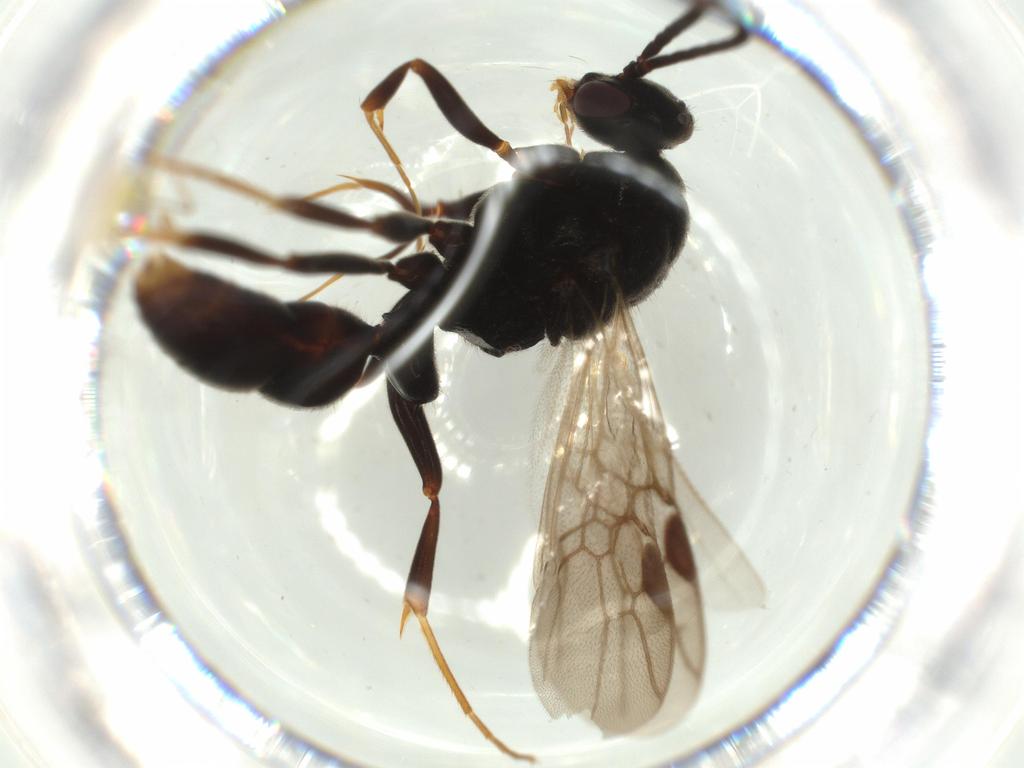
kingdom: Animalia
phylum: Arthropoda
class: Insecta
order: Hymenoptera
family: Formicidae
